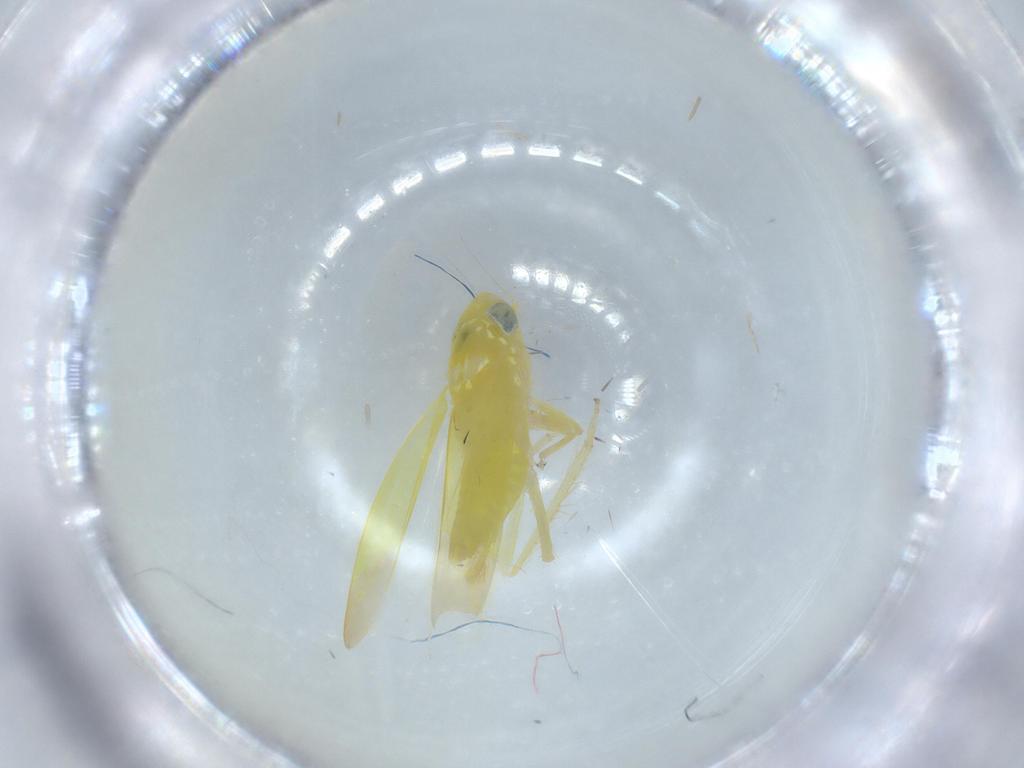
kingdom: Animalia
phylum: Arthropoda
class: Insecta
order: Hemiptera
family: Cicadellidae
